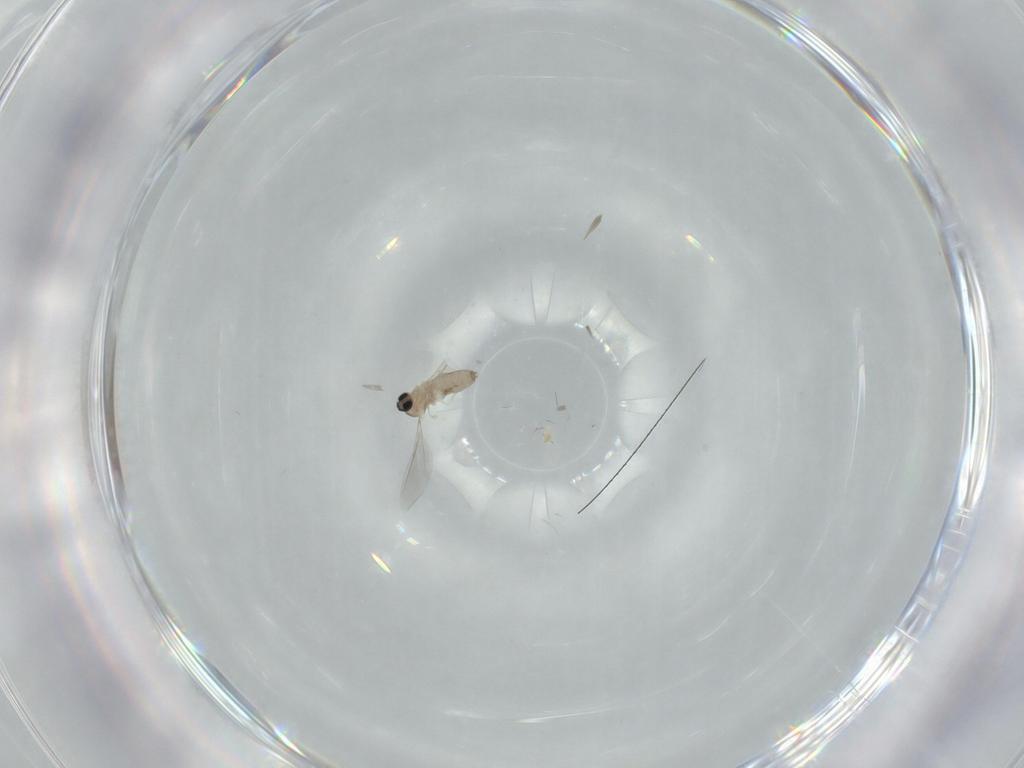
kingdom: Animalia
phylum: Arthropoda
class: Insecta
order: Diptera
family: Cecidomyiidae
